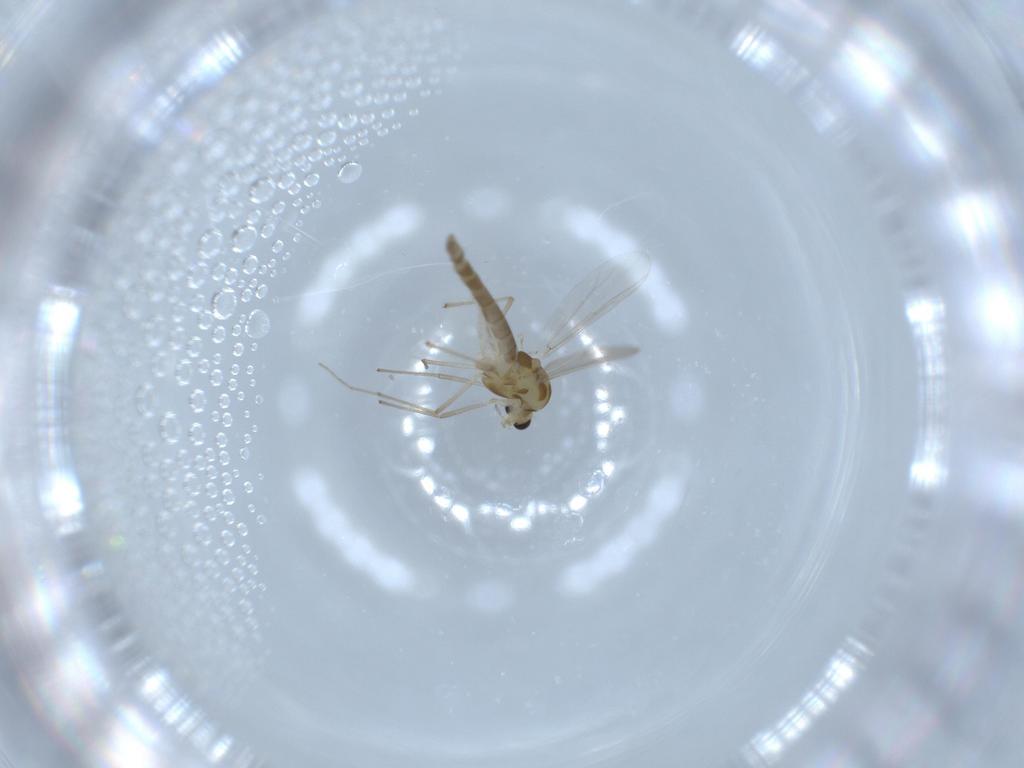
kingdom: Animalia
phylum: Arthropoda
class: Insecta
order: Diptera
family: Chironomidae
